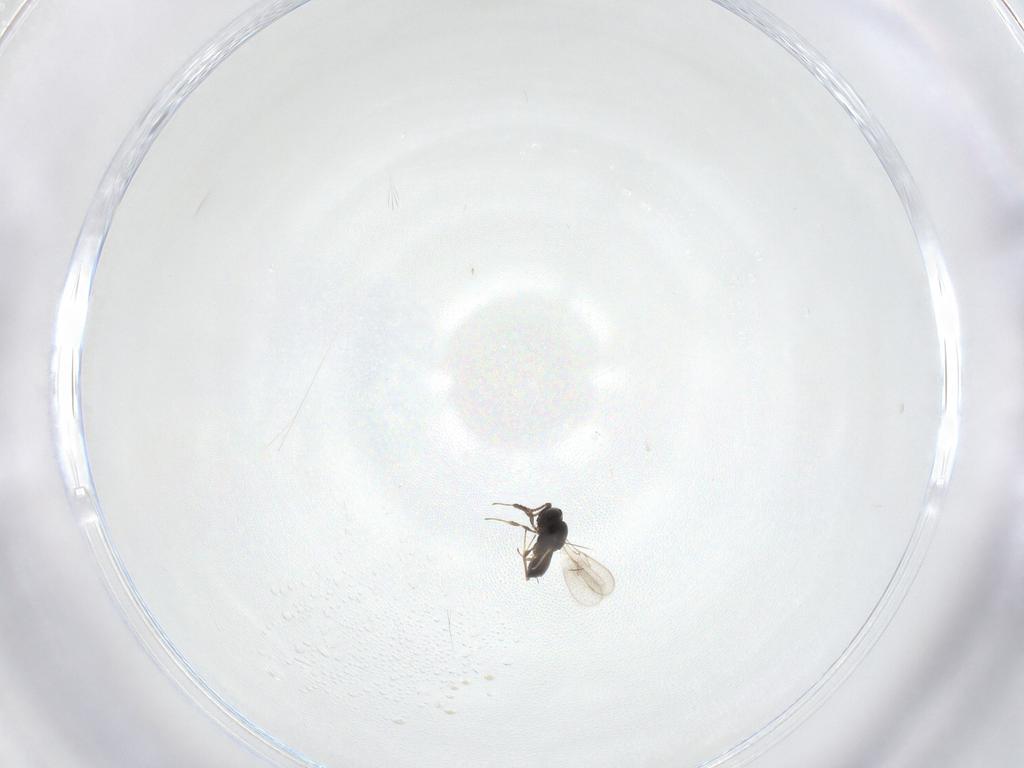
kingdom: Animalia
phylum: Arthropoda
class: Insecta
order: Hymenoptera
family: Scelionidae
